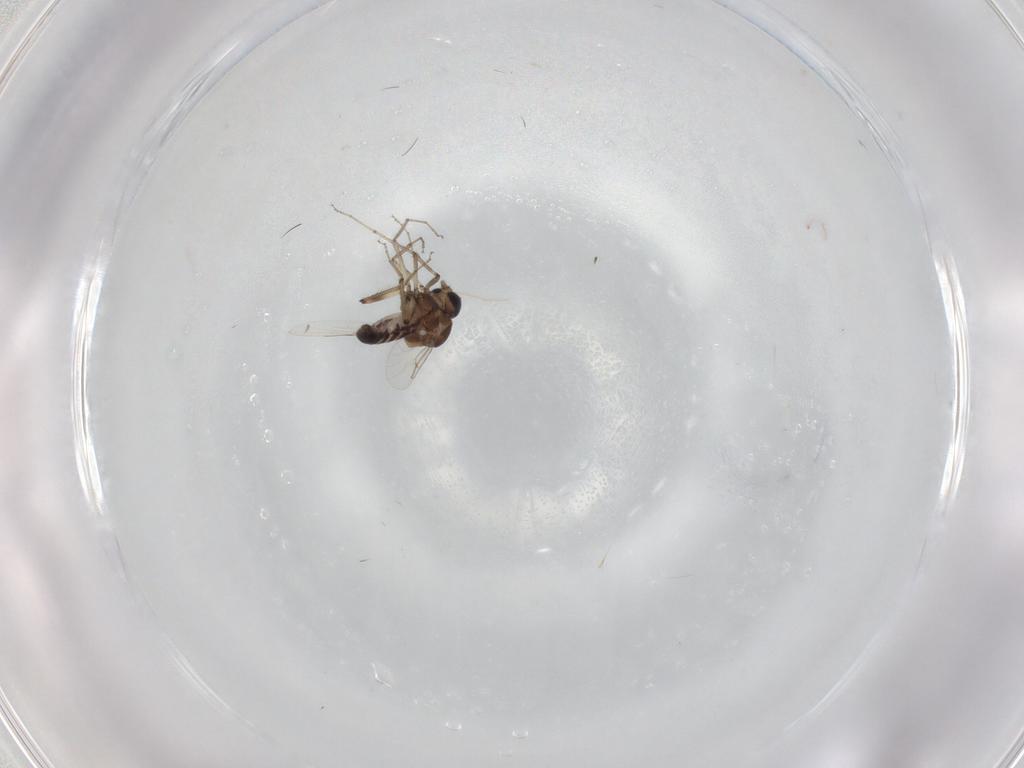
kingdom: Animalia
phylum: Arthropoda
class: Insecta
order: Diptera
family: Ceratopogonidae
